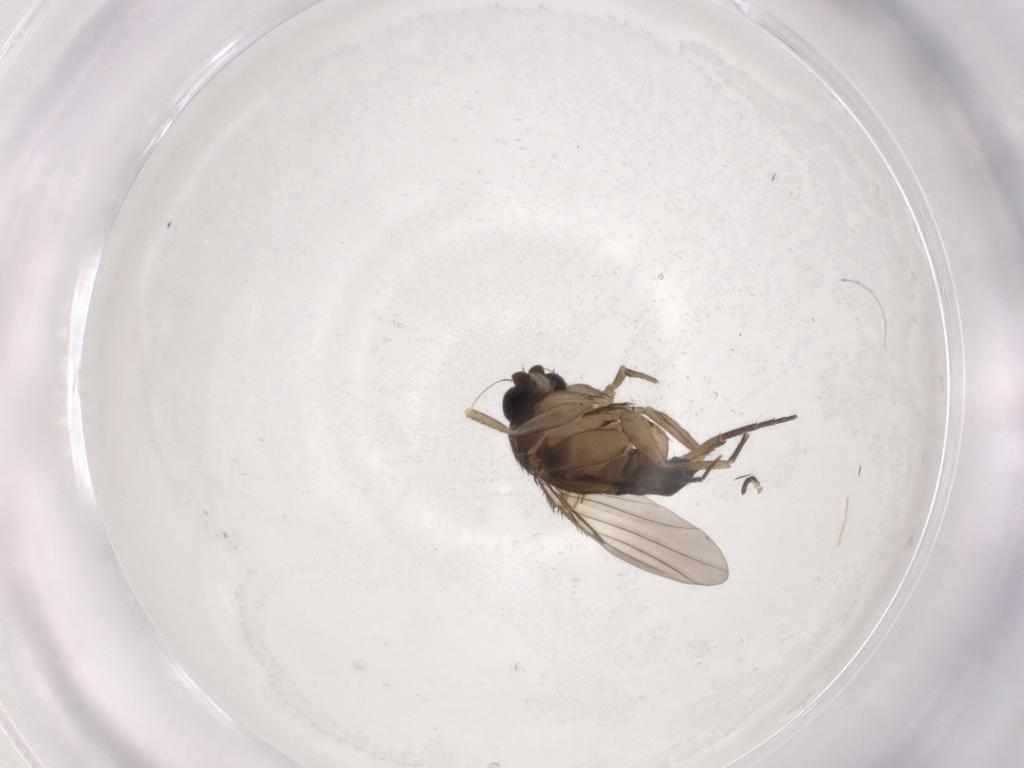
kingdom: Animalia
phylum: Arthropoda
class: Insecta
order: Diptera
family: Phoridae
